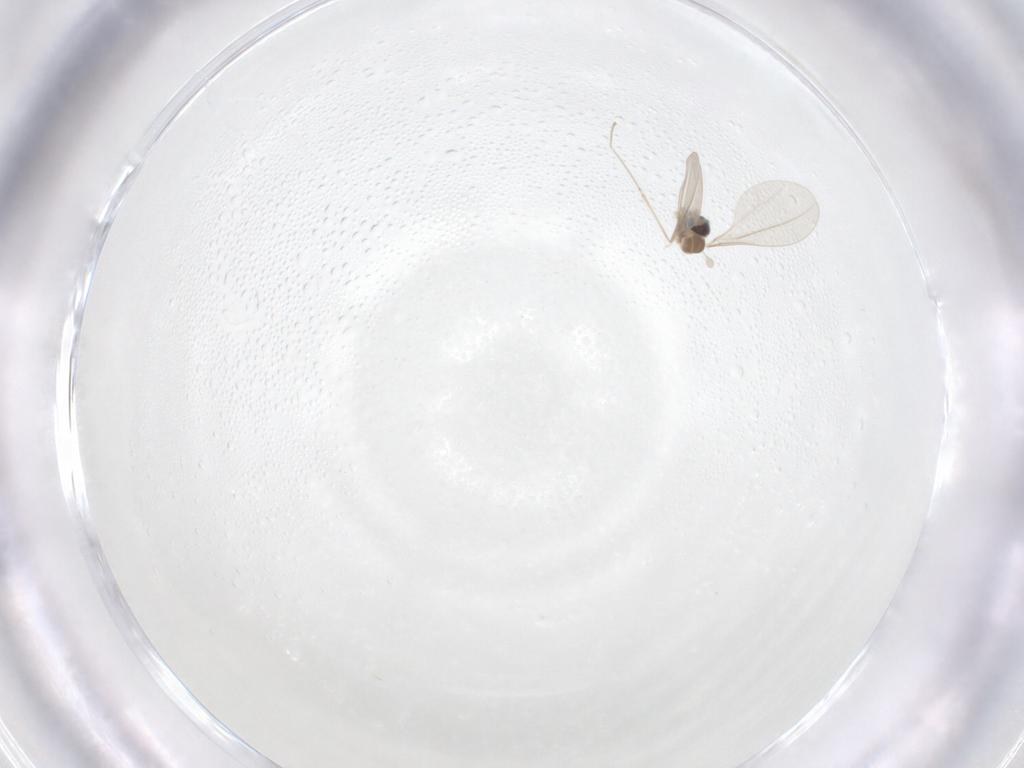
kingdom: Animalia
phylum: Arthropoda
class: Insecta
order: Diptera
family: Cecidomyiidae
